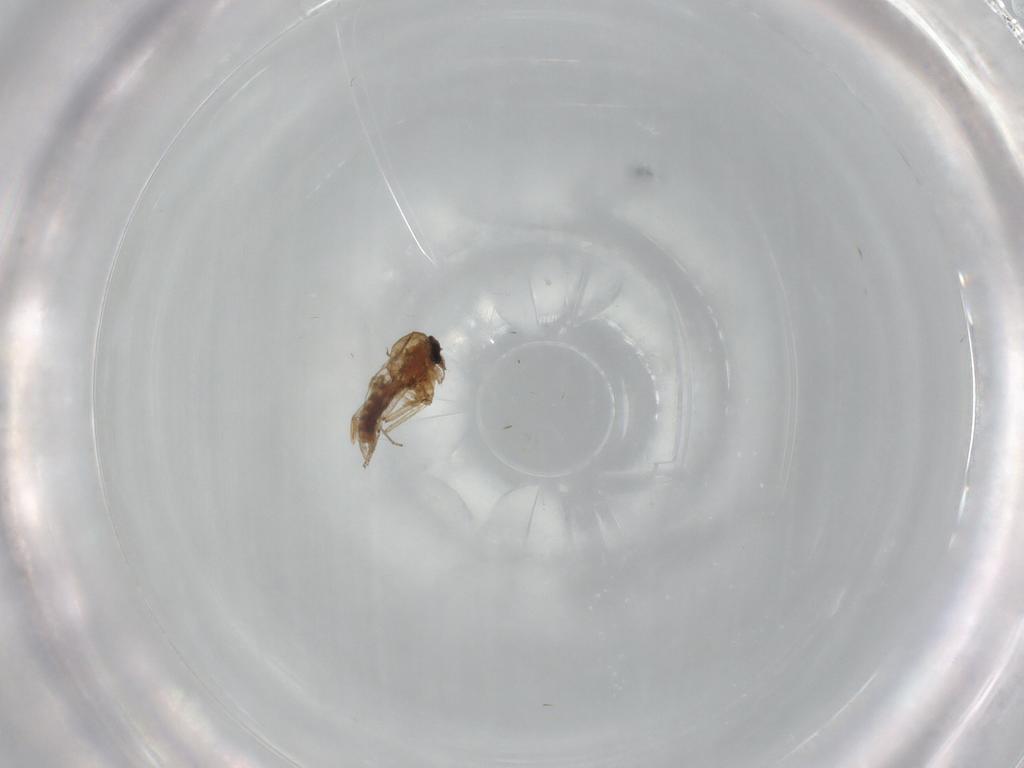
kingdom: Animalia
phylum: Arthropoda
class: Insecta
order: Diptera
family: Ceratopogonidae
